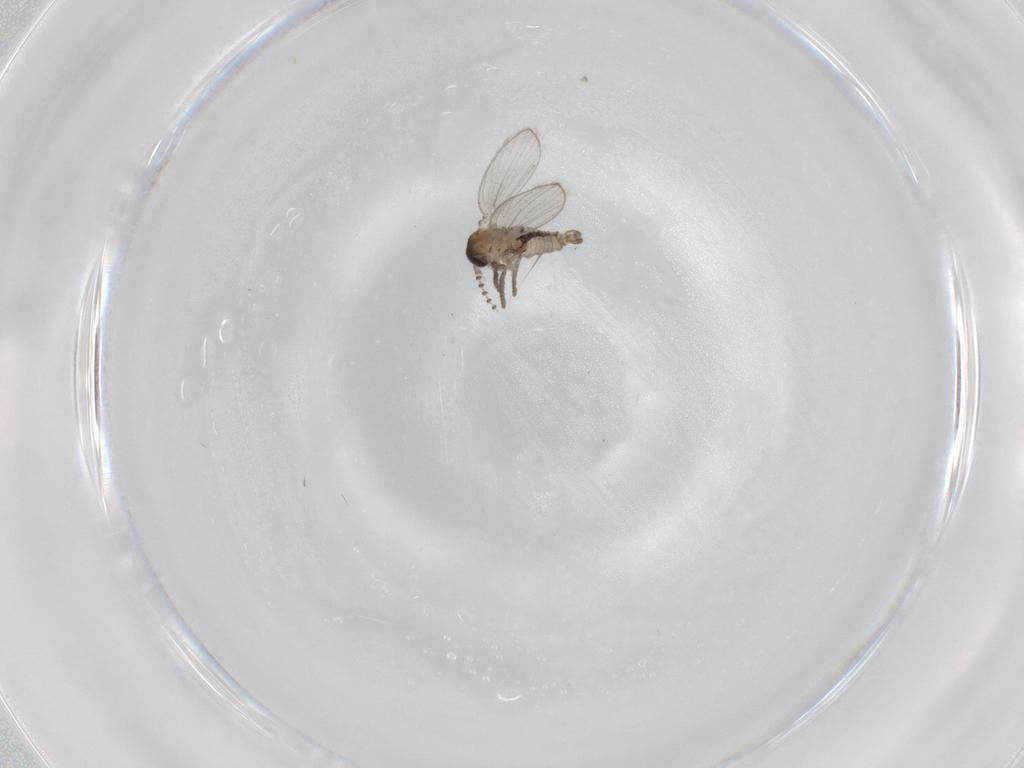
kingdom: Animalia
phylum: Arthropoda
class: Insecta
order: Diptera
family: Psychodidae
